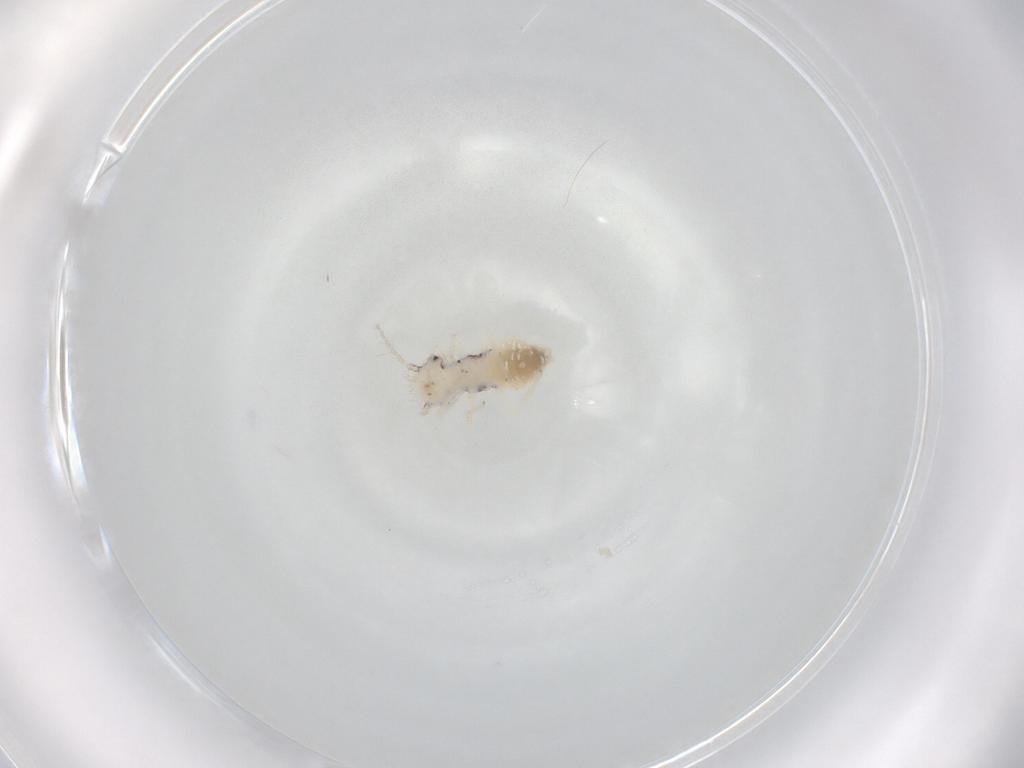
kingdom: Animalia
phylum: Arthropoda
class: Insecta
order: Psocodea
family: Philotarsidae
